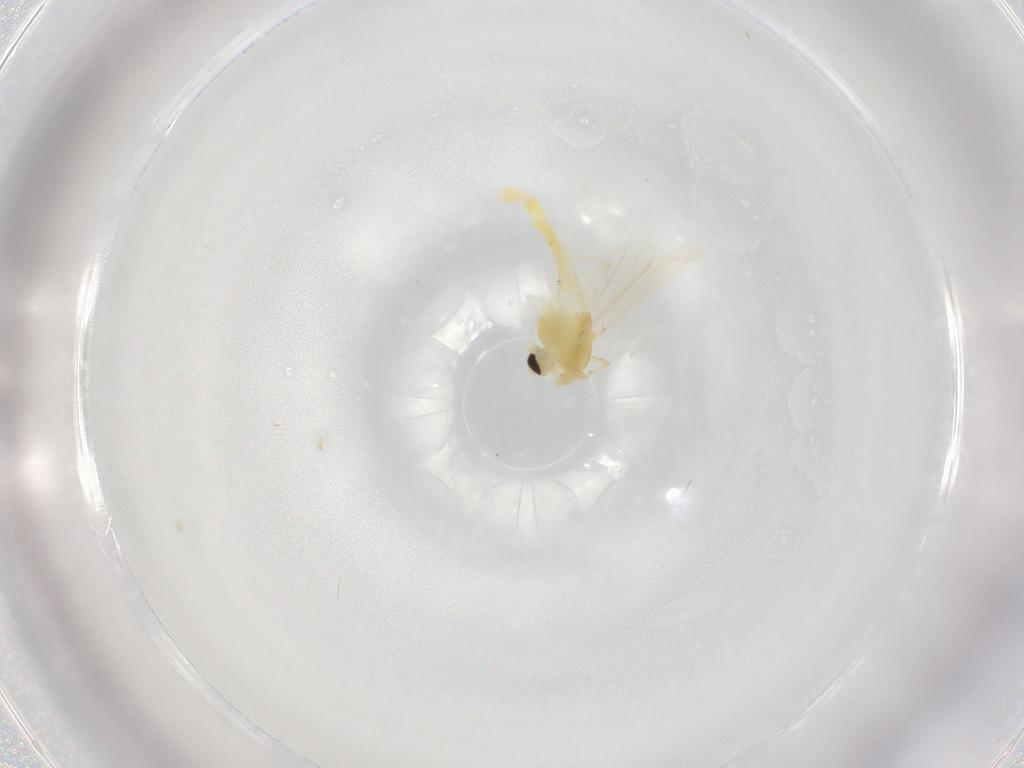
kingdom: Animalia
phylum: Arthropoda
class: Insecta
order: Diptera
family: Chironomidae
